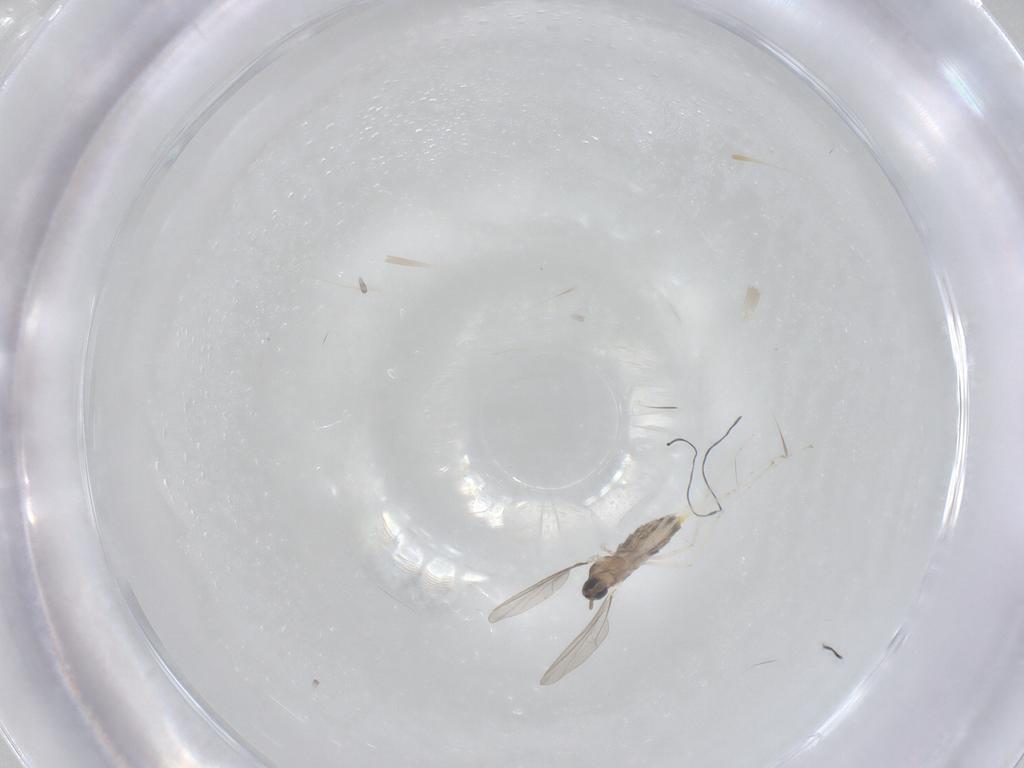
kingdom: Animalia
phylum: Arthropoda
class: Insecta
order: Diptera
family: Cecidomyiidae
